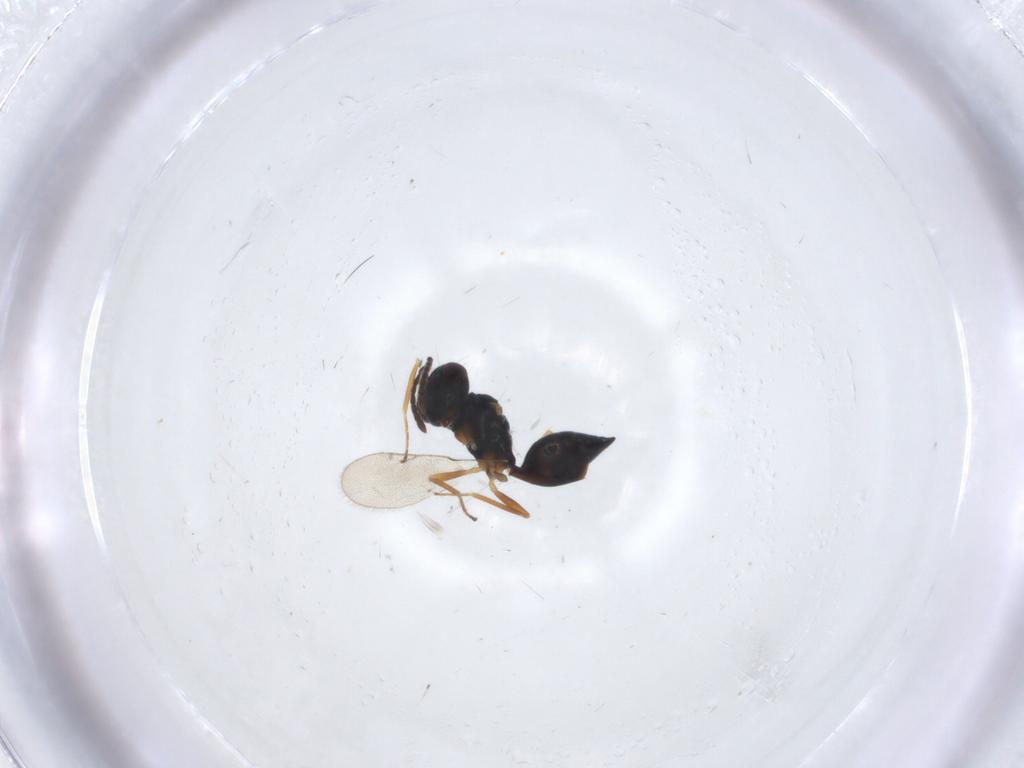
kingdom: Animalia
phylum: Arthropoda
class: Insecta
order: Hymenoptera
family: Pteromalidae
